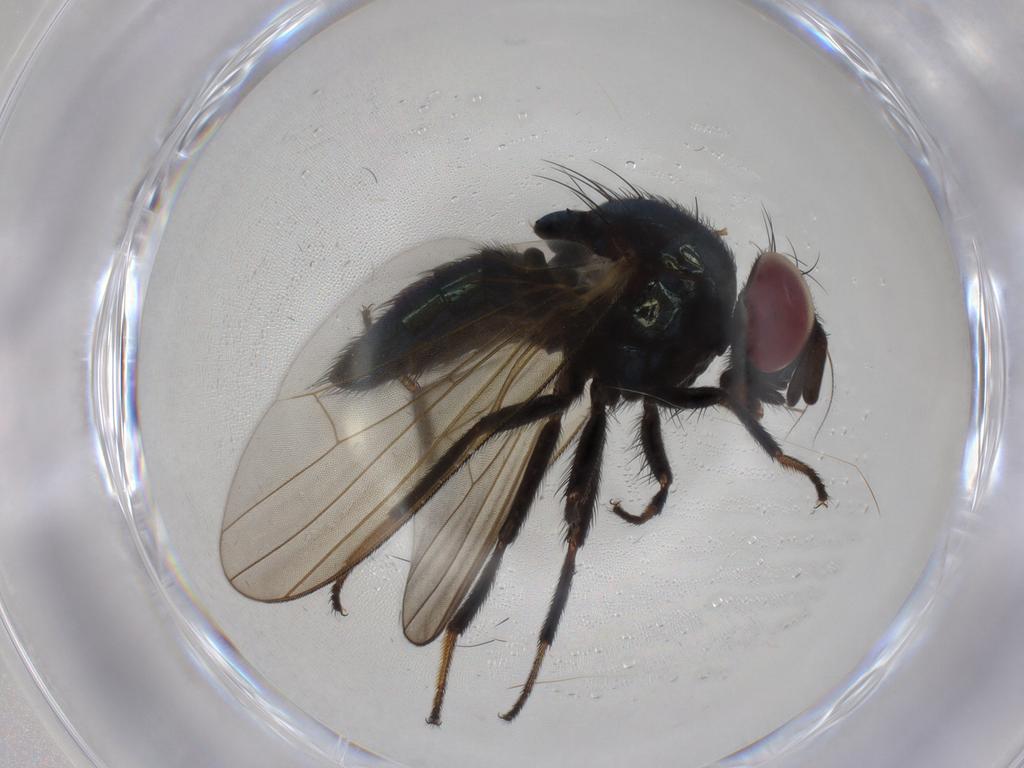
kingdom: Animalia
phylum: Arthropoda
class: Insecta
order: Diptera
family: Lonchaeidae
